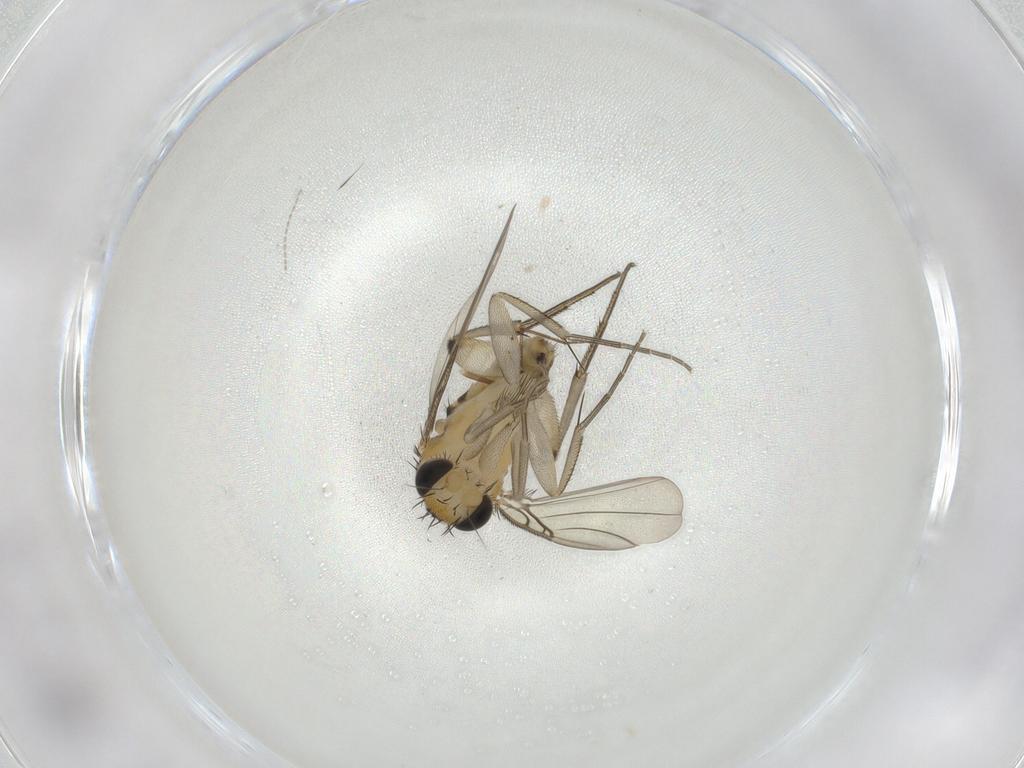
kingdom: Animalia
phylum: Arthropoda
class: Insecta
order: Diptera
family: Phoridae
